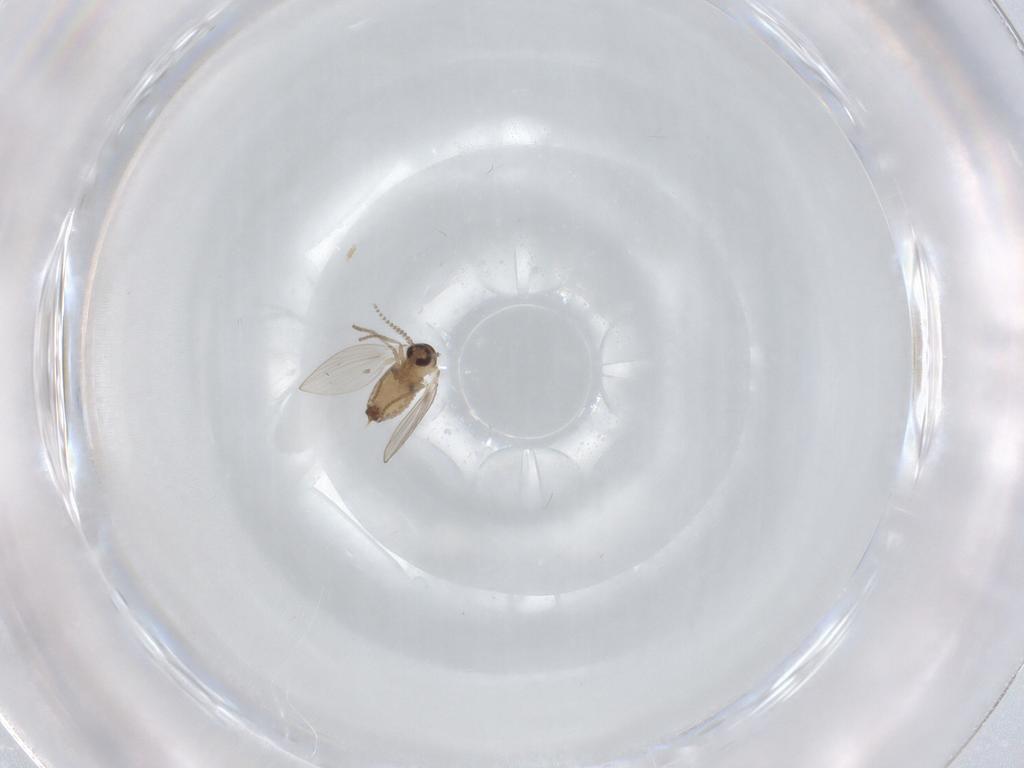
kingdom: Animalia
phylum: Arthropoda
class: Insecta
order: Diptera
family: Psychodidae
